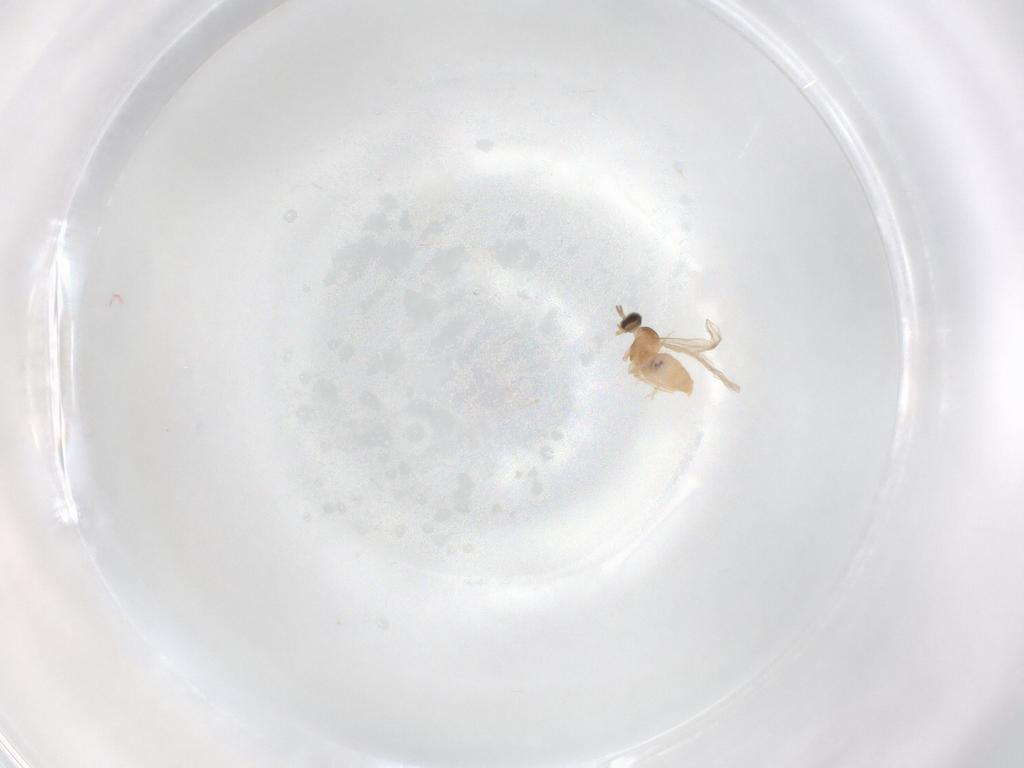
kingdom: Animalia
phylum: Arthropoda
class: Insecta
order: Diptera
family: Cecidomyiidae
